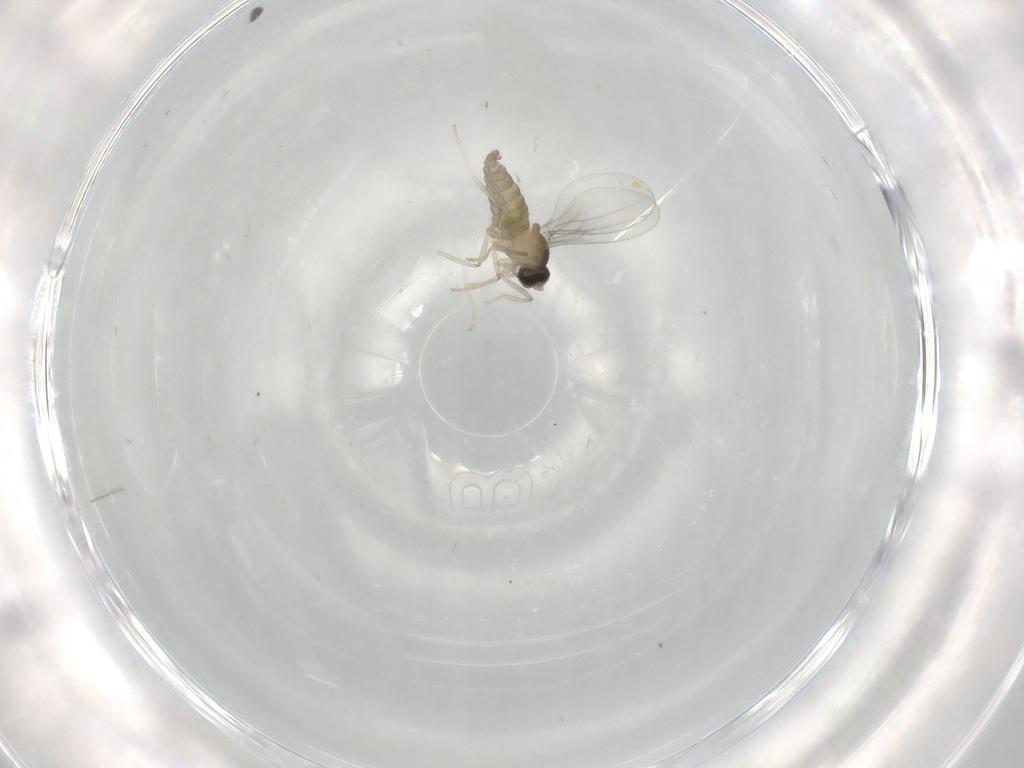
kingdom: Animalia
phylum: Arthropoda
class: Insecta
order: Diptera
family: Cecidomyiidae
